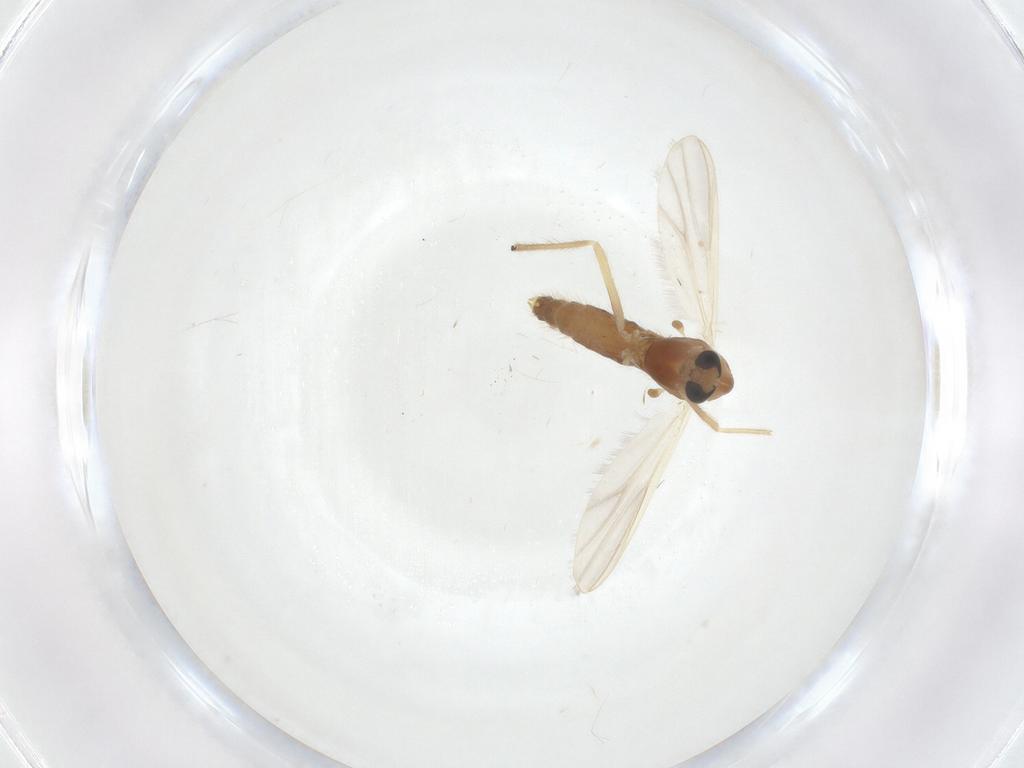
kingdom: Animalia
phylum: Arthropoda
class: Insecta
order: Diptera
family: Chironomidae
